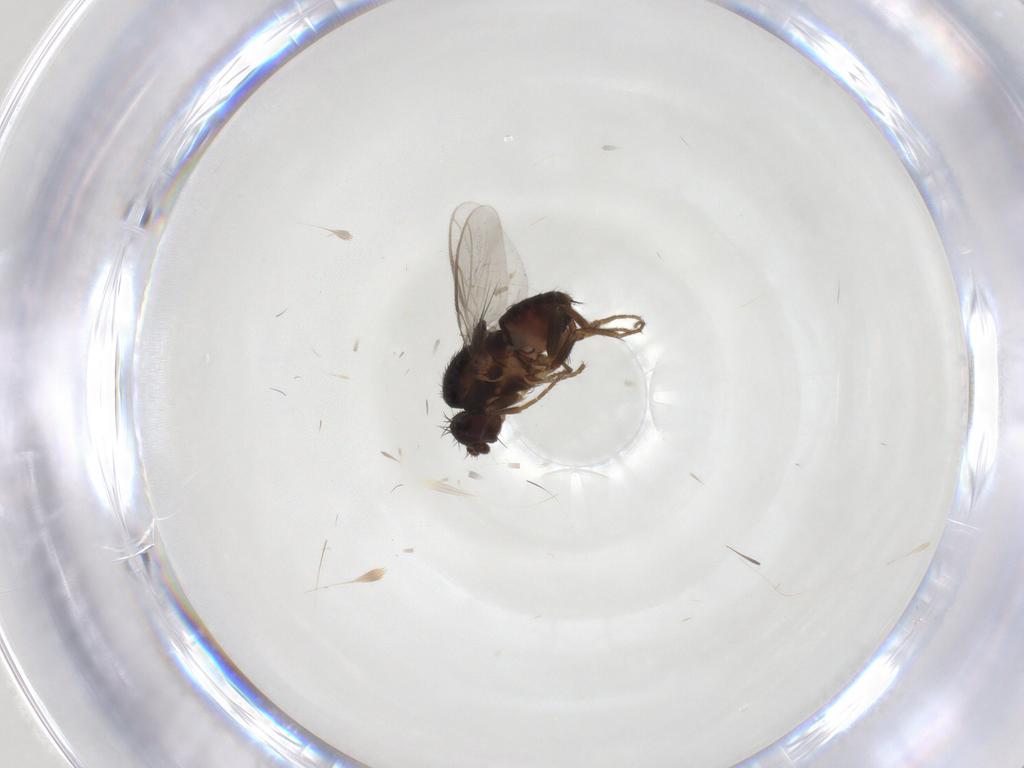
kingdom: Animalia
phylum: Arthropoda
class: Insecta
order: Diptera
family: Sphaeroceridae
